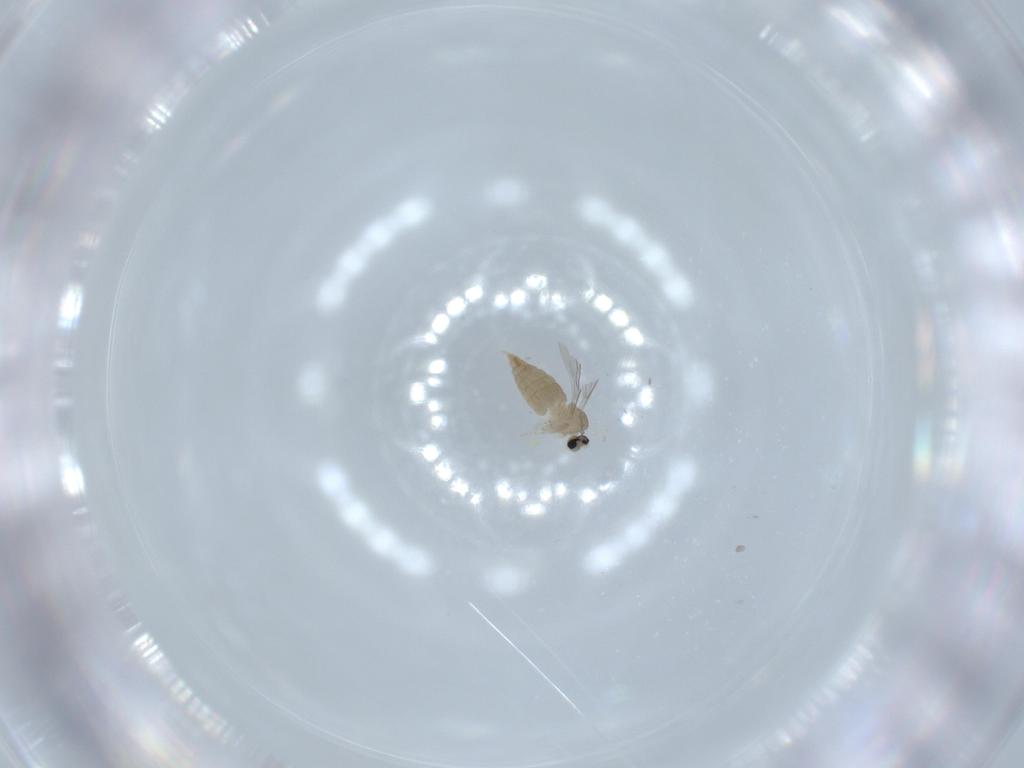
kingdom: Animalia
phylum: Arthropoda
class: Insecta
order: Diptera
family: Cecidomyiidae
